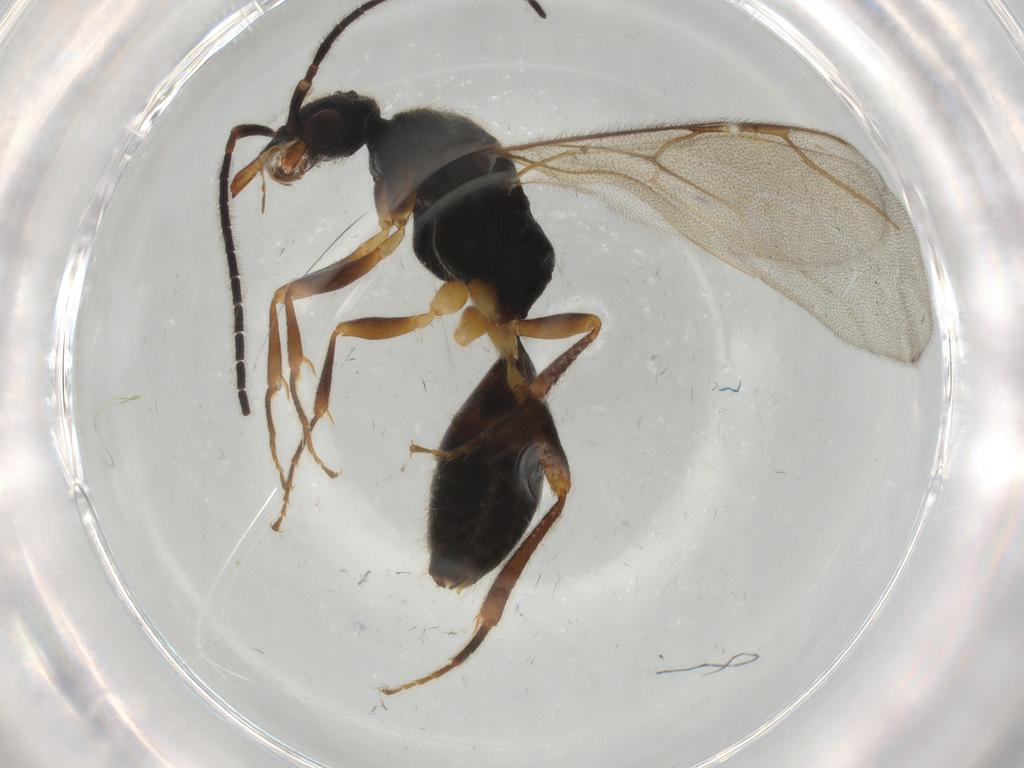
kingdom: Animalia
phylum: Arthropoda
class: Insecta
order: Hymenoptera
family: Bethylidae
